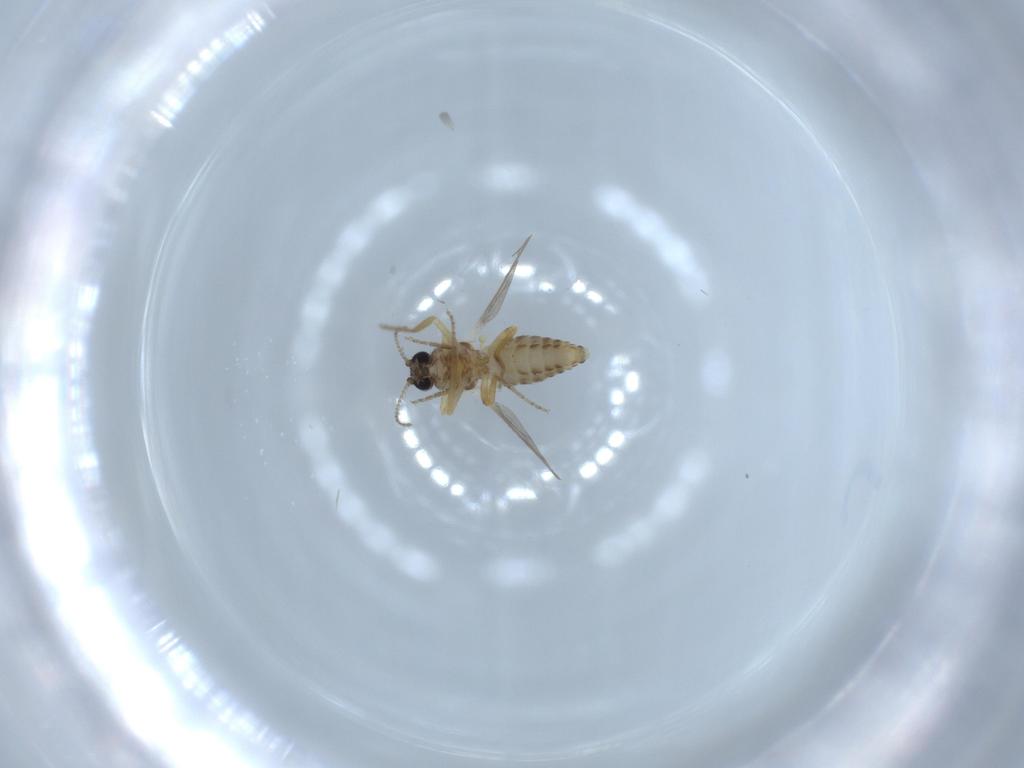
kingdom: Animalia
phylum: Arthropoda
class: Insecta
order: Diptera
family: Ceratopogonidae
